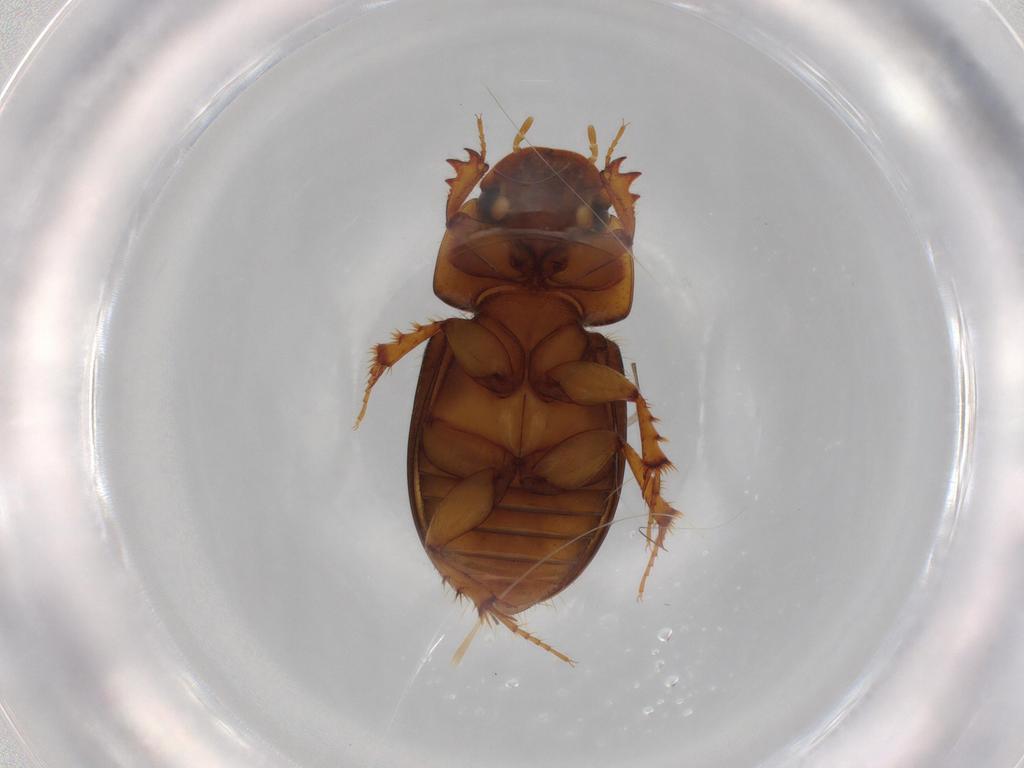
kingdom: Animalia
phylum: Arthropoda
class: Insecta
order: Coleoptera
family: Scarabaeidae
